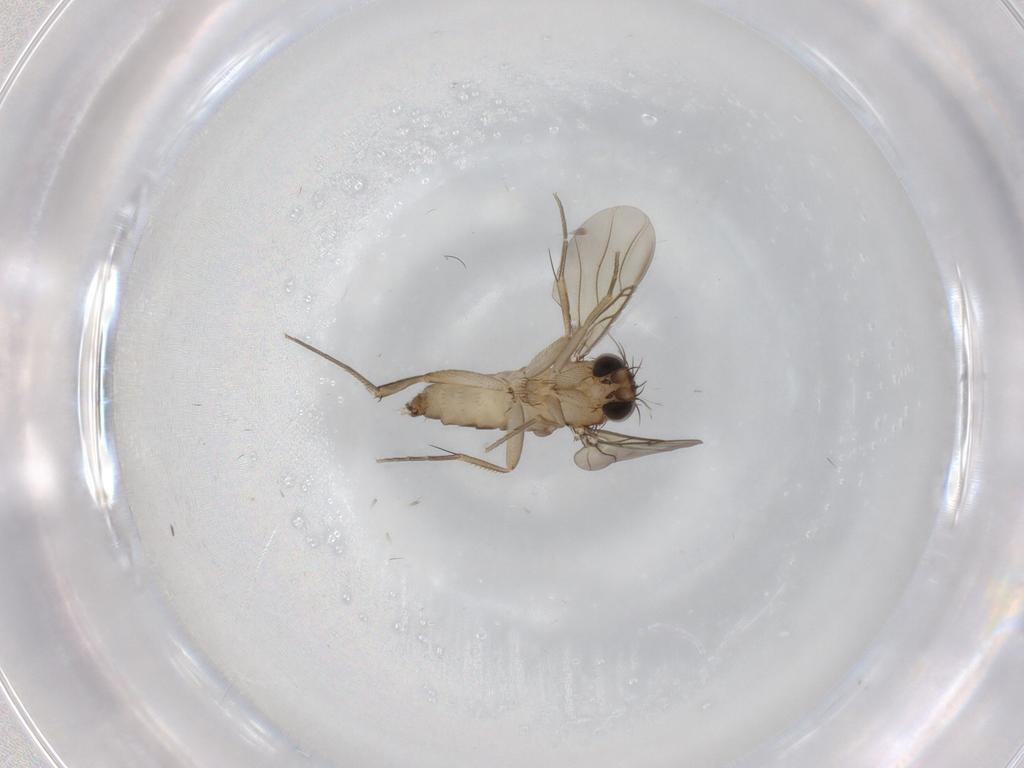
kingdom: Animalia
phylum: Arthropoda
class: Insecta
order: Diptera
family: Phoridae
